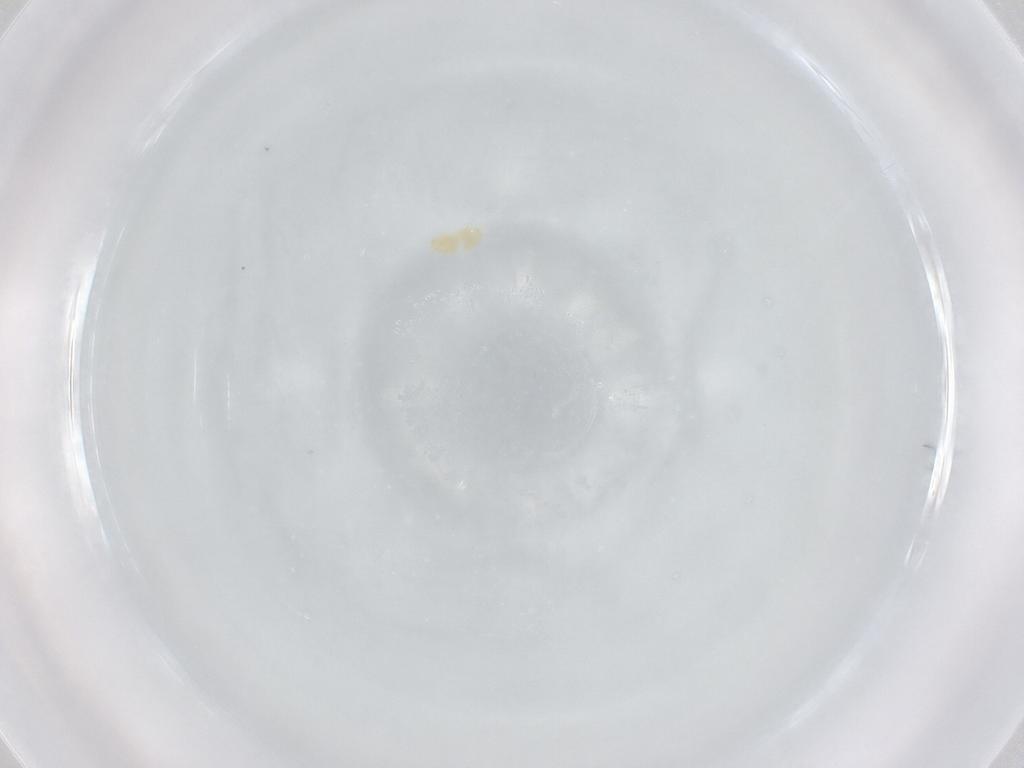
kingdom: Animalia
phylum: Arthropoda
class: Arachnida
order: Trombidiformes
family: Eupodidae
